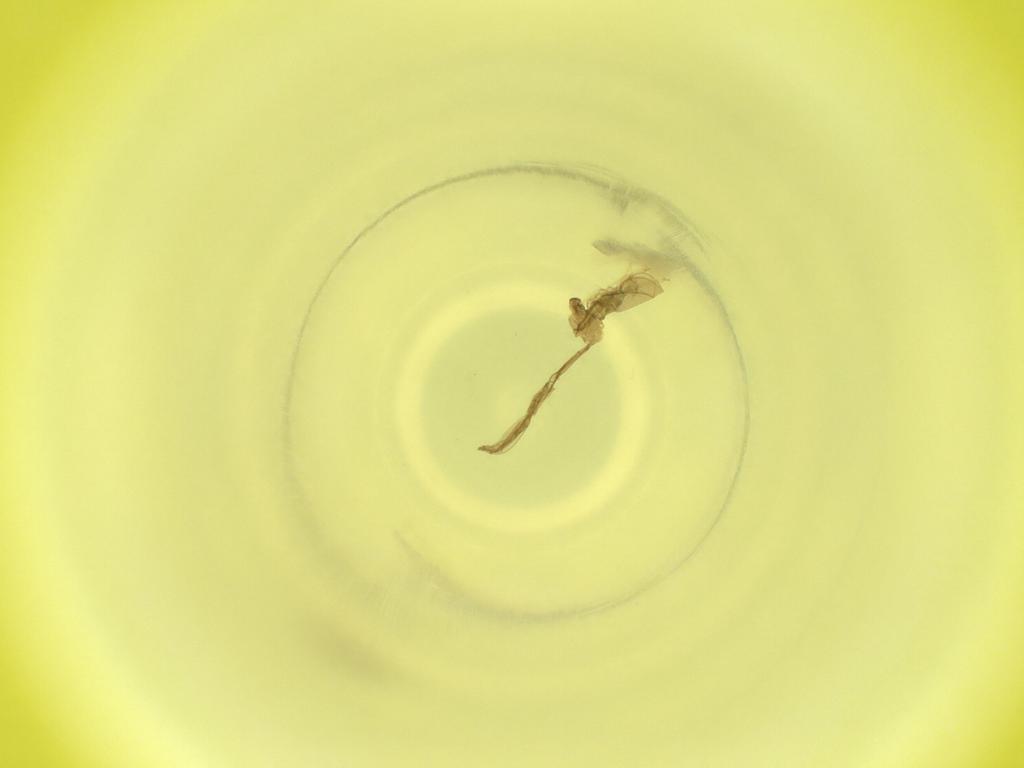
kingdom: Animalia
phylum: Arthropoda
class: Insecta
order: Diptera
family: Cecidomyiidae
